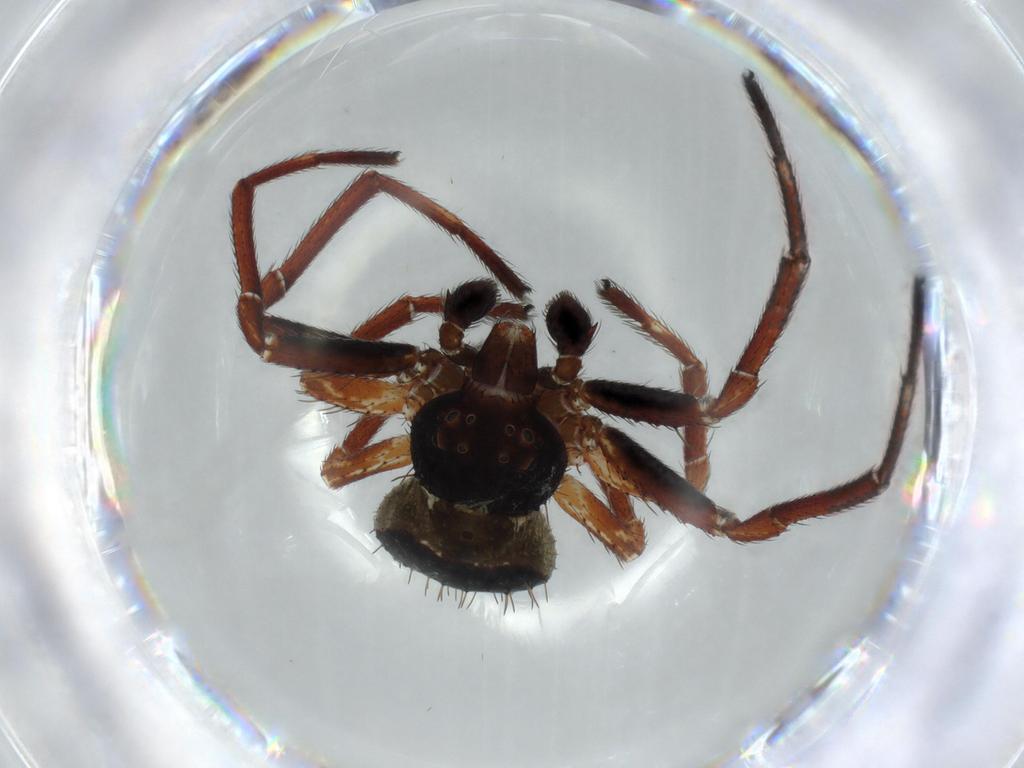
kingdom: Animalia
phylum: Arthropoda
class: Arachnida
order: Araneae
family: Thomisidae
